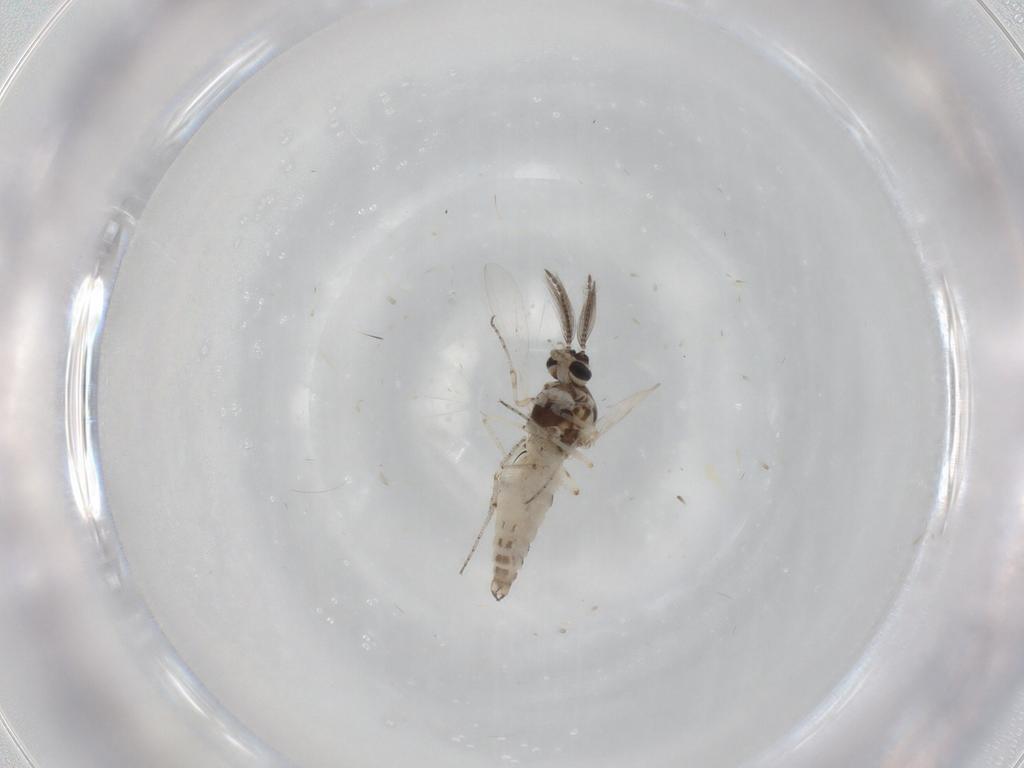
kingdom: Animalia
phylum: Arthropoda
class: Insecta
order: Diptera
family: Ceratopogonidae
